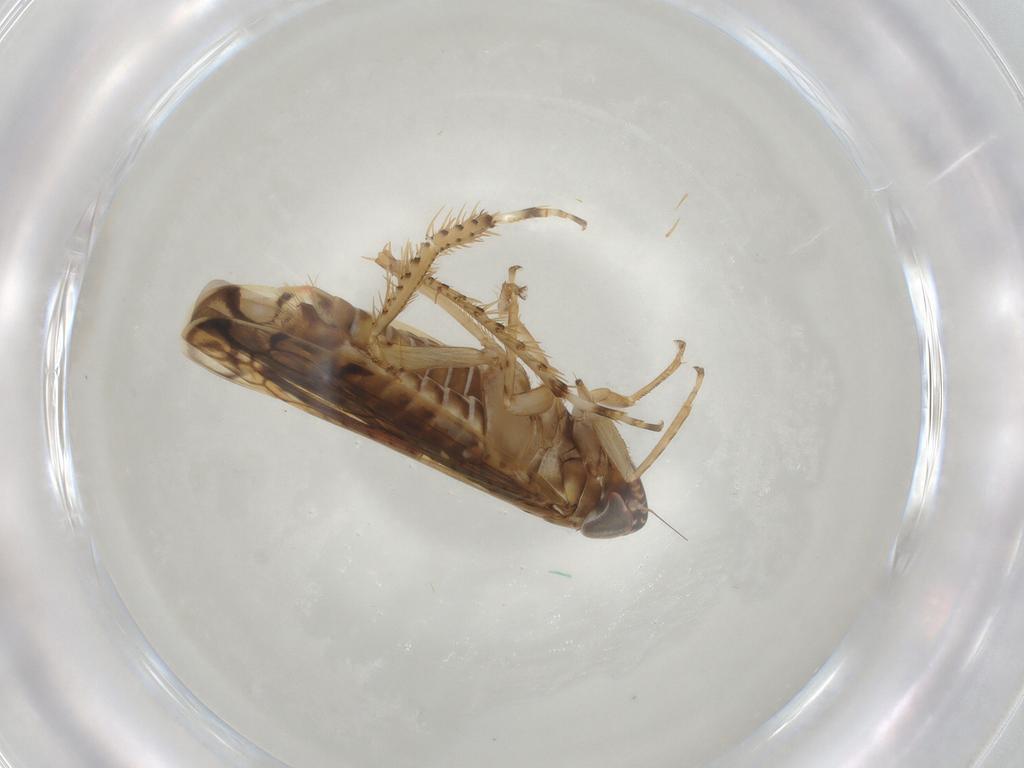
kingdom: Animalia
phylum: Arthropoda
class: Insecta
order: Hemiptera
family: Cicadellidae
